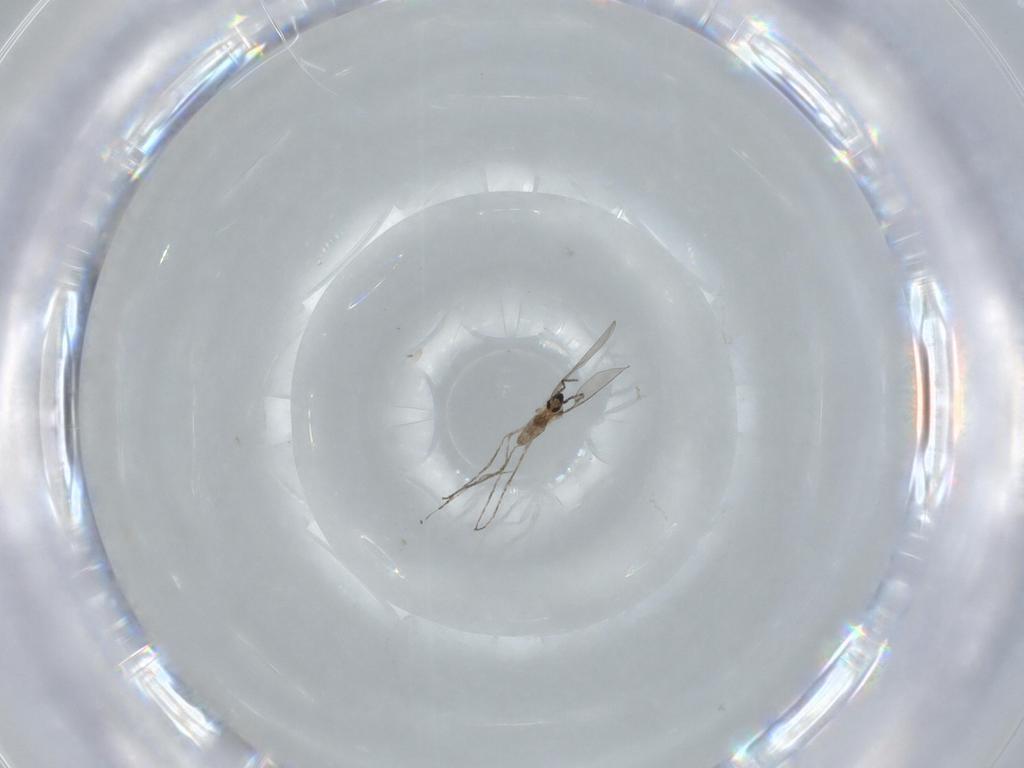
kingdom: Animalia
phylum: Arthropoda
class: Insecta
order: Diptera
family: Cecidomyiidae
